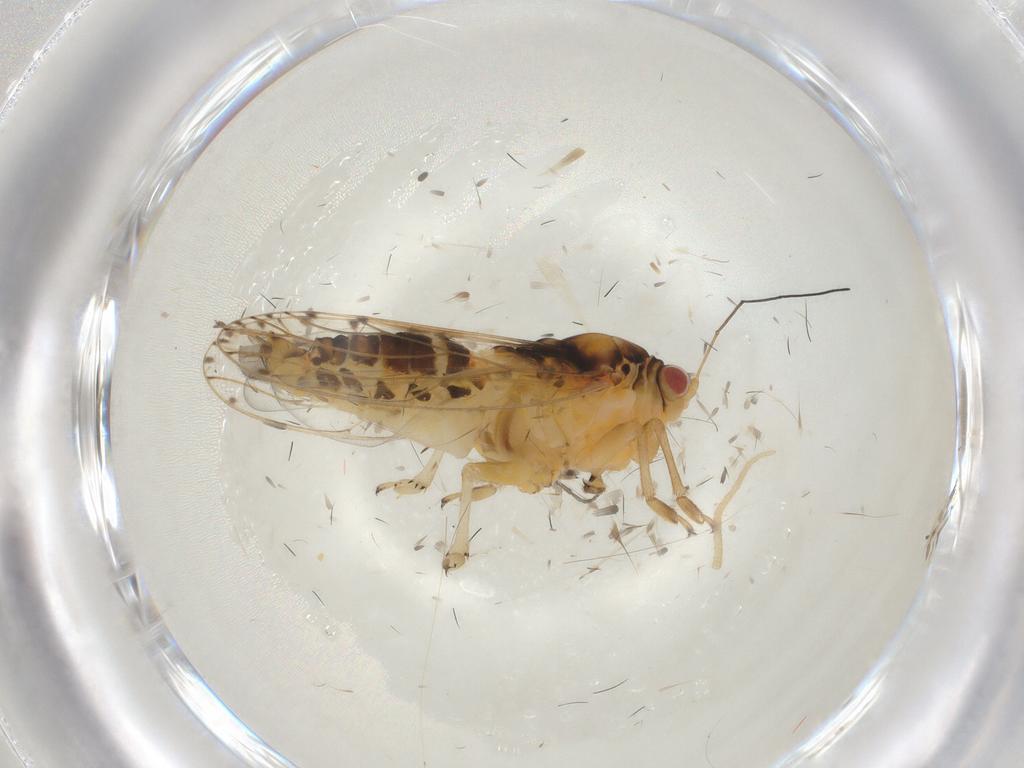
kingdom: Animalia
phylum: Arthropoda
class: Insecta
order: Hemiptera
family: Psylloidea_incertae_sedis
